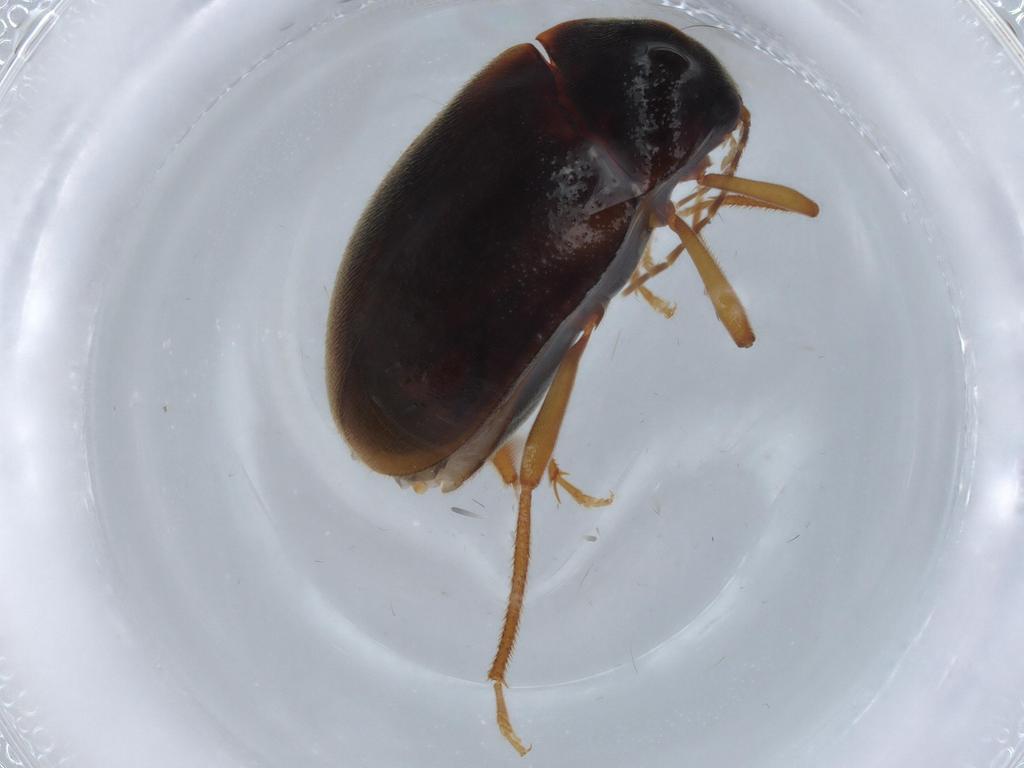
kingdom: Animalia
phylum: Arthropoda
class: Insecta
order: Coleoptera
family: Ptilodactylidae
